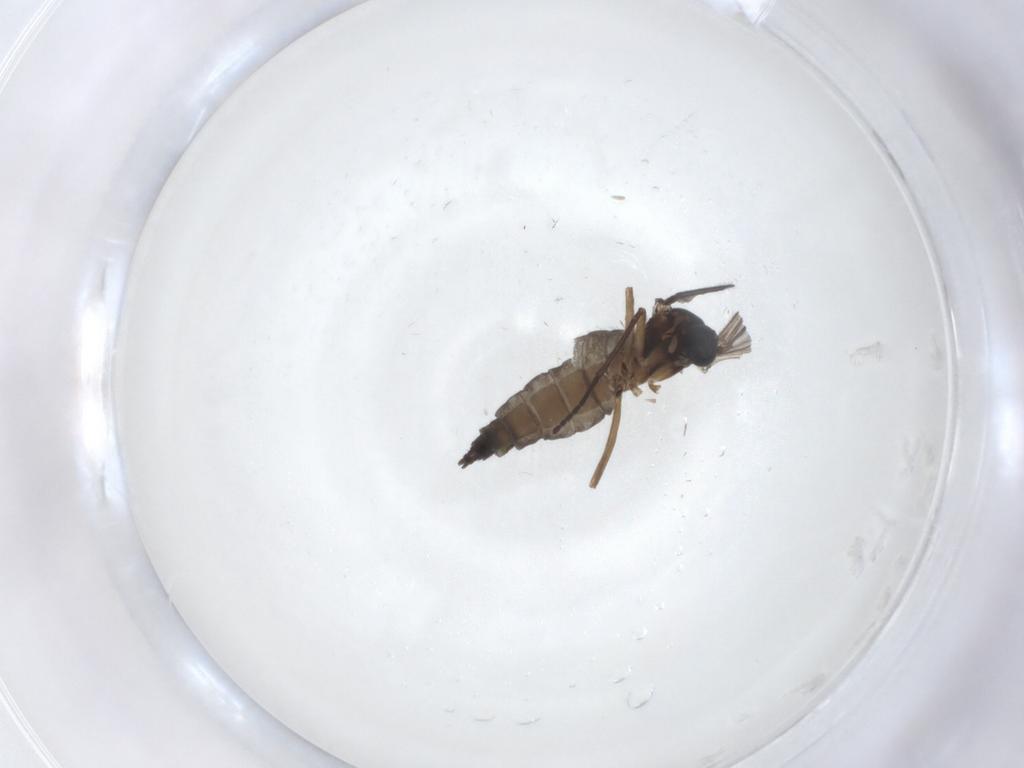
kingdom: Animalia
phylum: Arthropoda
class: Insecta
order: Diptera
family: Sciaridae
